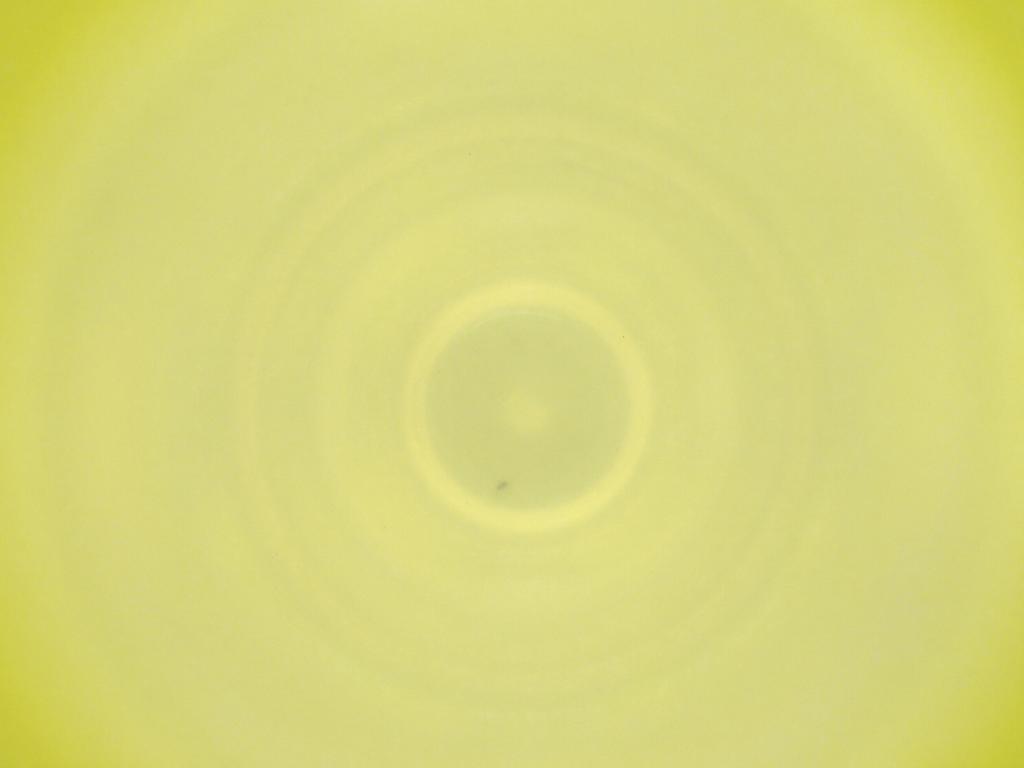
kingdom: Animalia
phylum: Arthropoda
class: Insecta
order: Diptera
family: Cecidomyiidae
